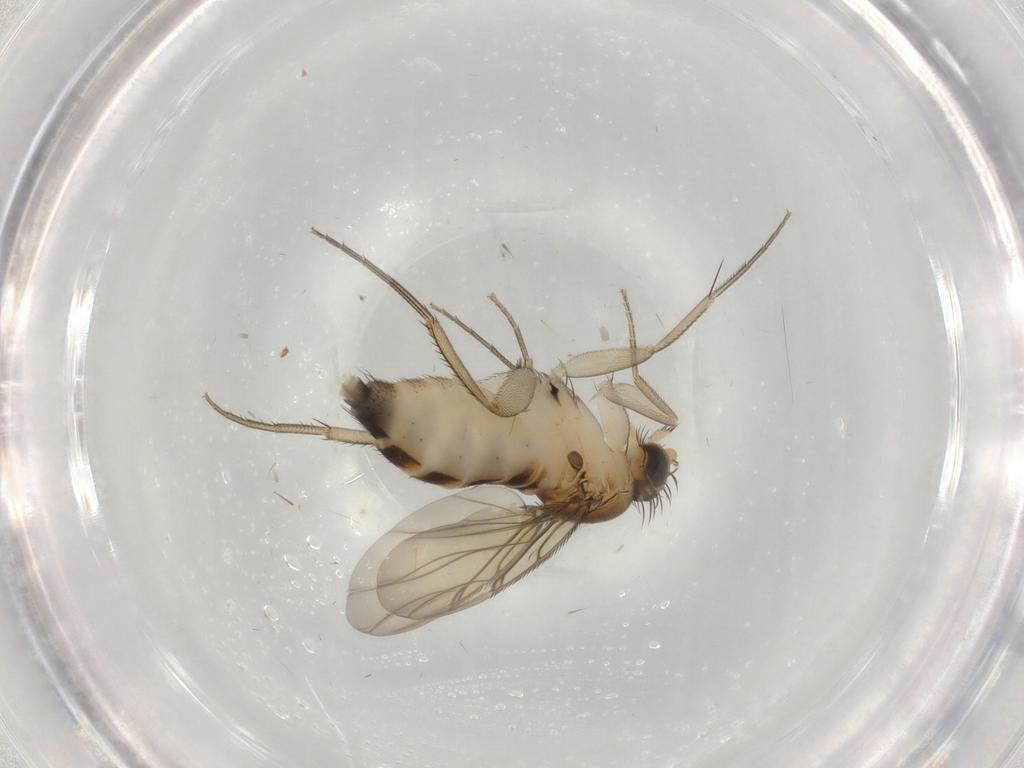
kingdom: Animalia
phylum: Arthropoda
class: Insecta
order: Diptera
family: Phoridae
